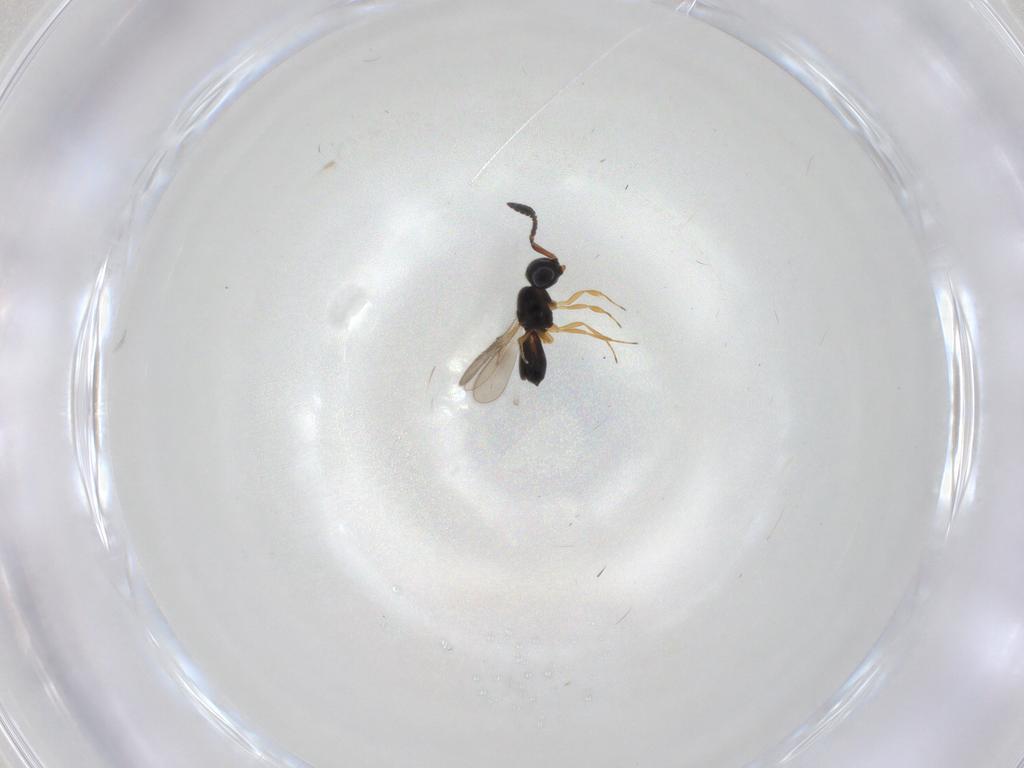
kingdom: Animalia
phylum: Arthropoda
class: Insecta
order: Hymenoptera
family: Scelionidae
